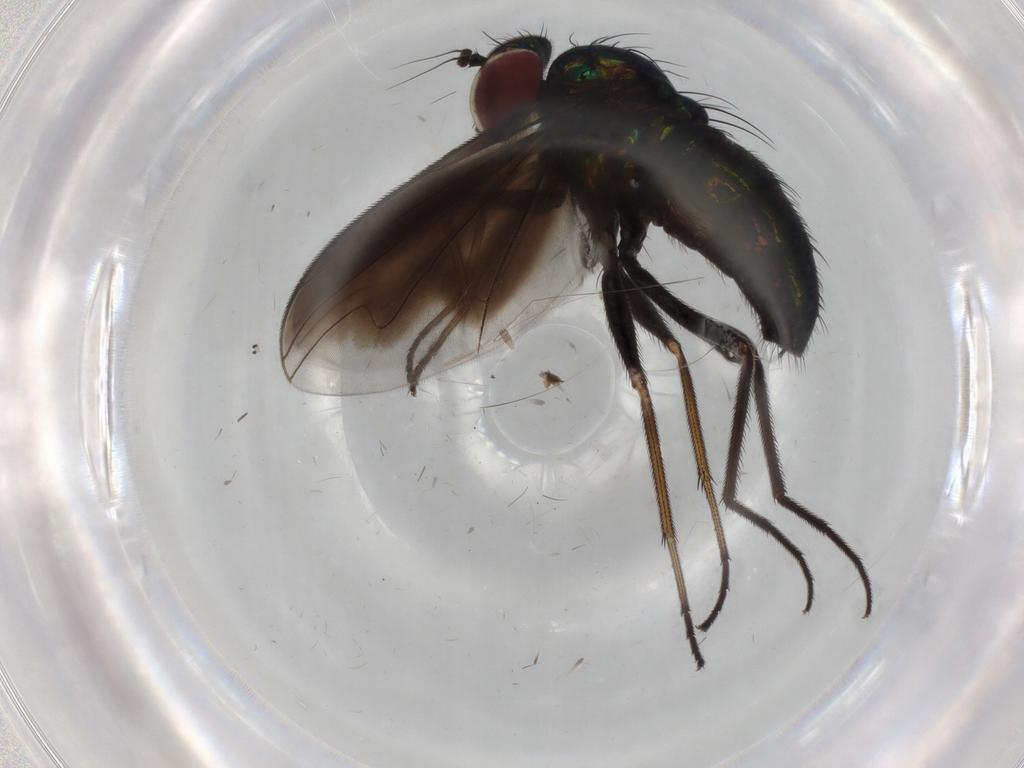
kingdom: Animalia
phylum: Arthropoda
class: Insecta
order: Diptera
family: Dolichopodidae
